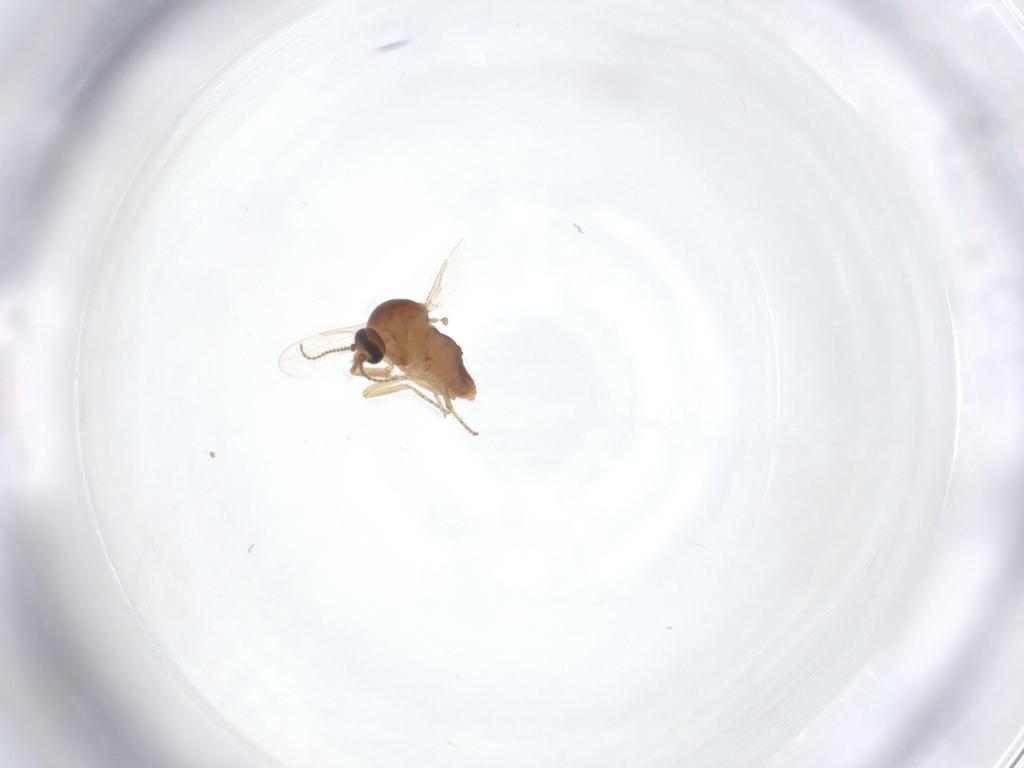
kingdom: Animalia
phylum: Arthropoda
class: Insecta
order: Diptera
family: Ceratopogonidae
